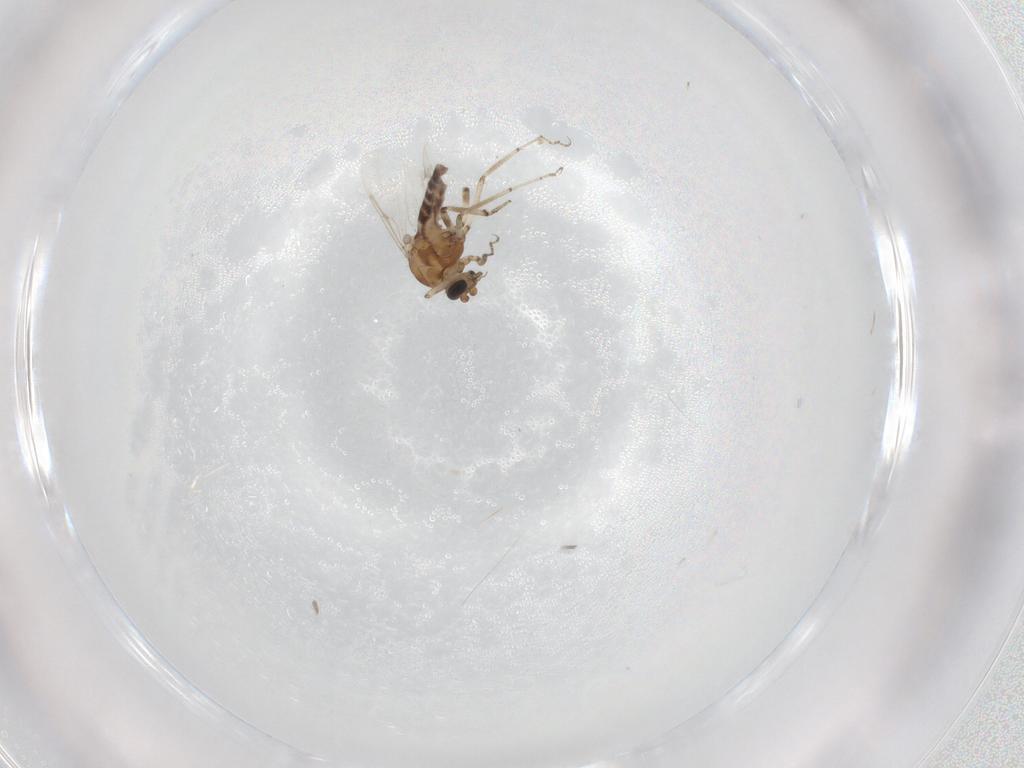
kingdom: Animalia
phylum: Arthropoda
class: Insecta
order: Diptera
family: Ceratopogonidae
